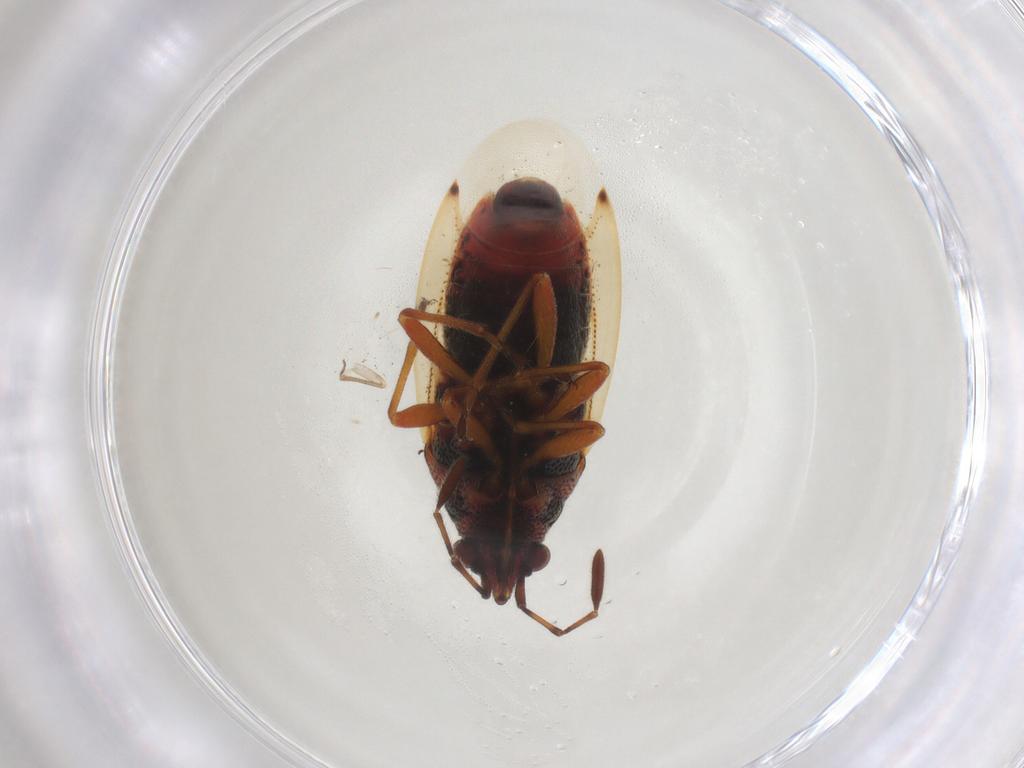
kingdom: Animalia
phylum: Arthropoda
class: Insecta
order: Hemiptera
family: Lygaeidae
